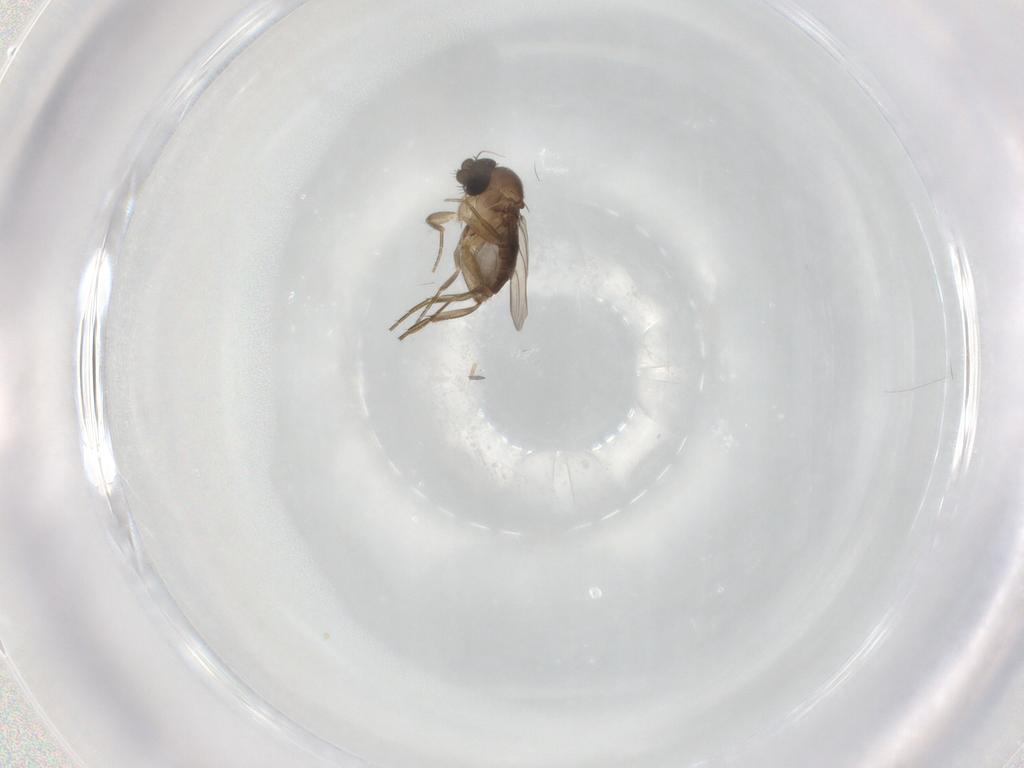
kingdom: Animalia
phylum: Arthropoda
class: Insecta
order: Diptera
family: Phoridae
